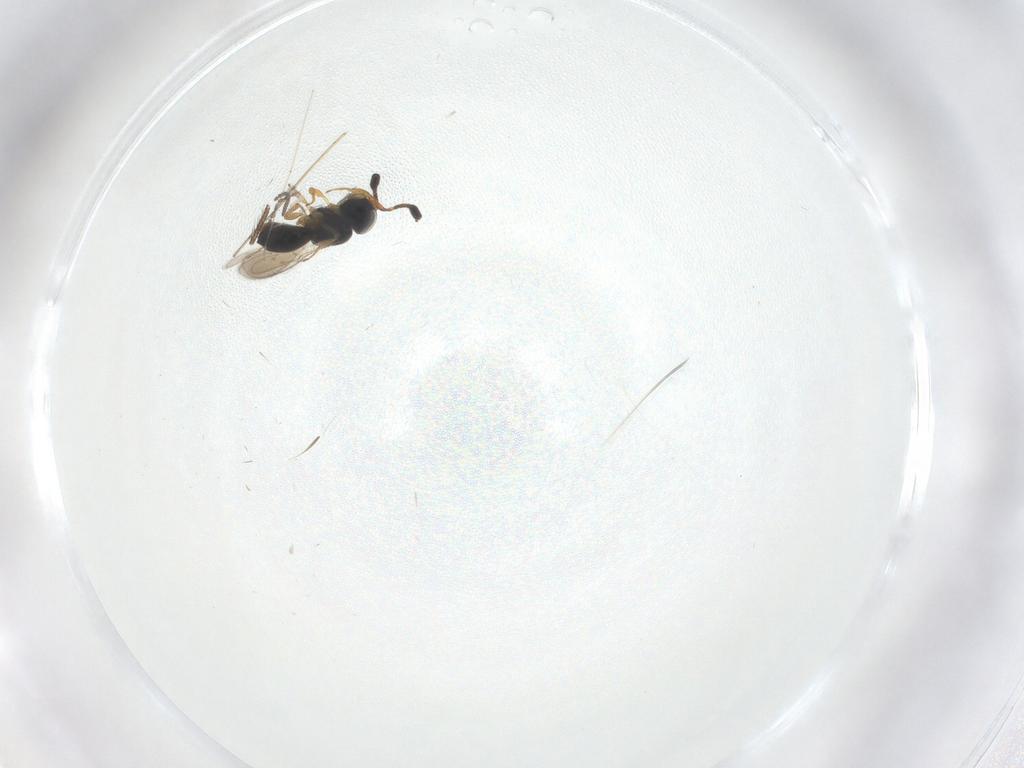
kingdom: Animalia
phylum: Arthropoda
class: Insecta
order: Hymenoptera
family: Scelionidae
